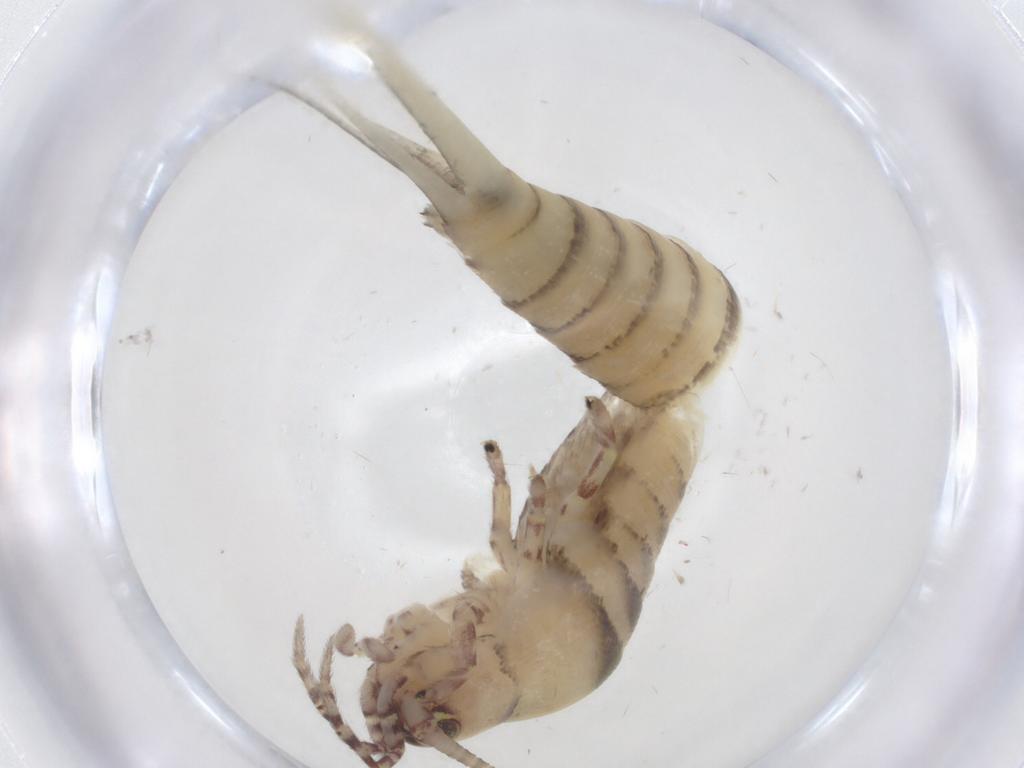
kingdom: Animalia
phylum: Arthropoda
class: Insecta
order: Archaeognatha
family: Machilidae
